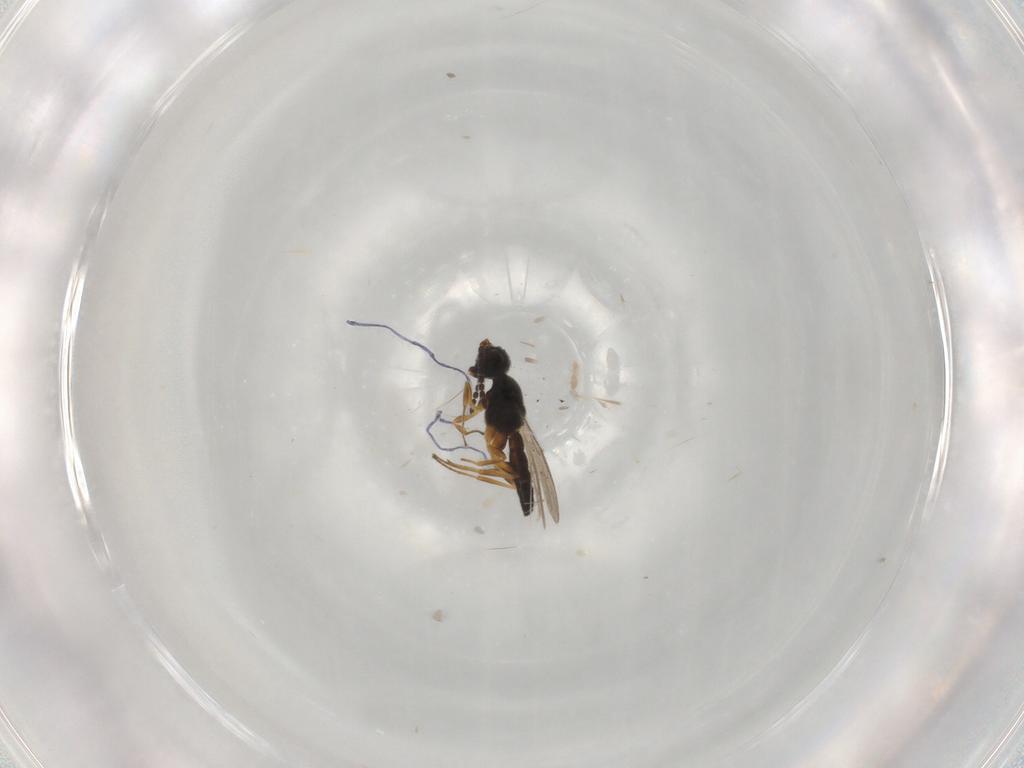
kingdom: Animalia
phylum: Arthropoda
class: Insecta
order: Hymenoptera
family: Scelionidae
